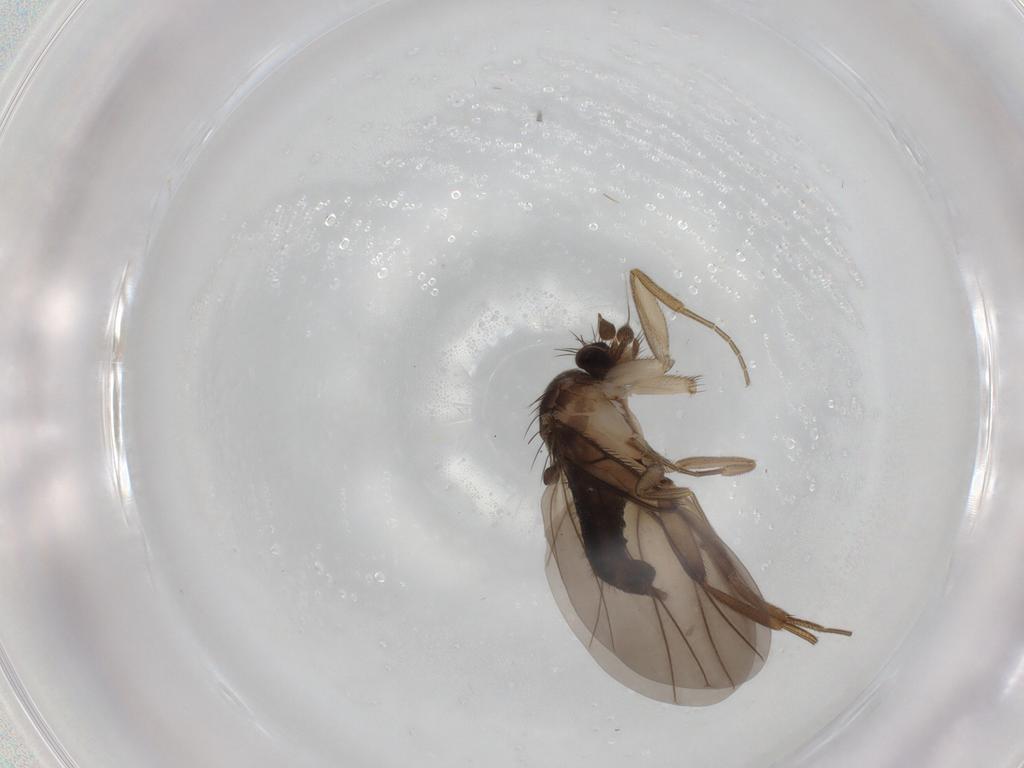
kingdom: Animalia
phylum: Arthropoda
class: Insecta
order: Diptera
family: Phoridae
